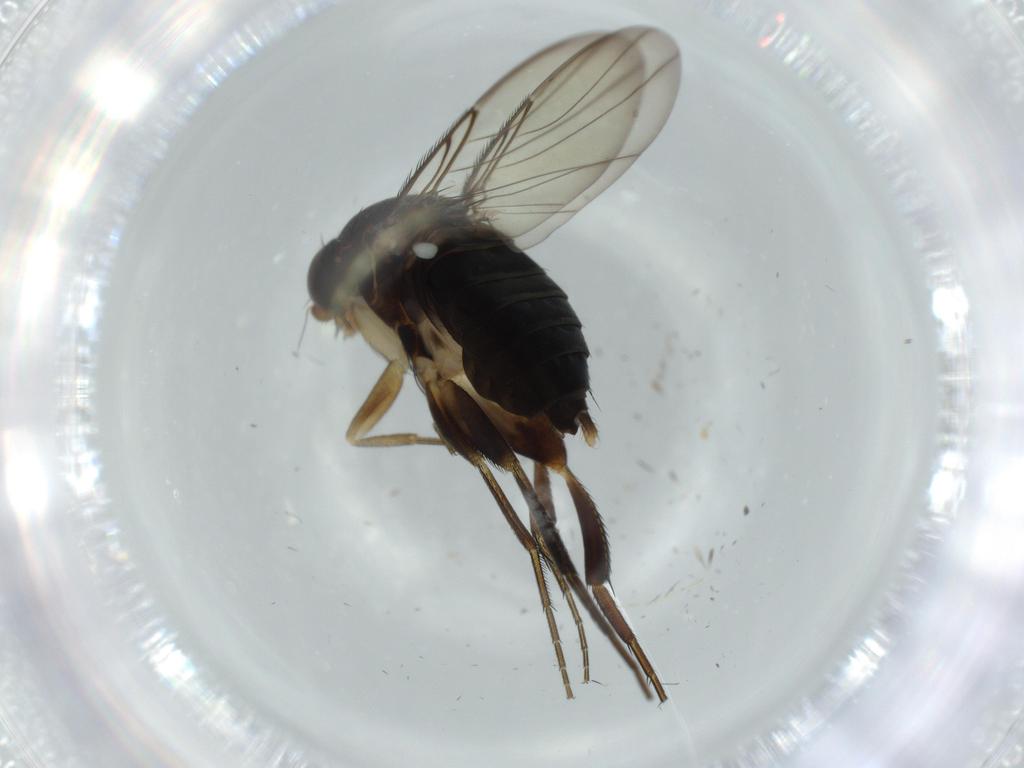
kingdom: Animalia
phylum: Arthropoda
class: Insecta
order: Diptera
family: Phoridae
